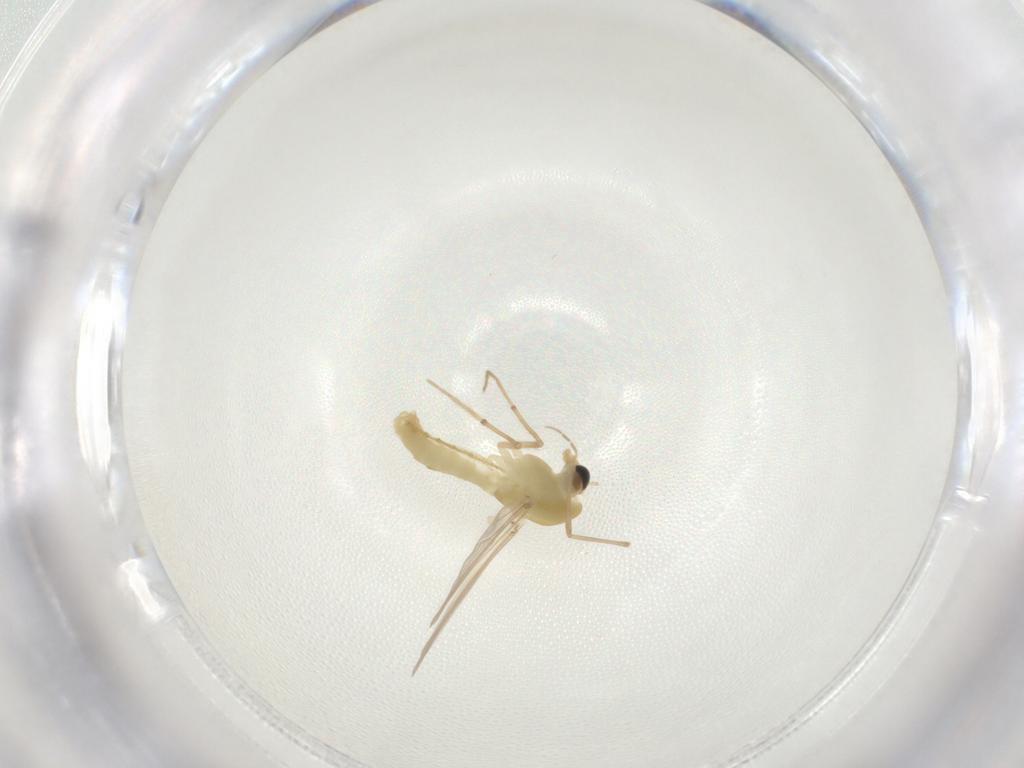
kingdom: Animalia
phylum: Arthropoda
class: Insecta
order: Diptera
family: Chironomidae
